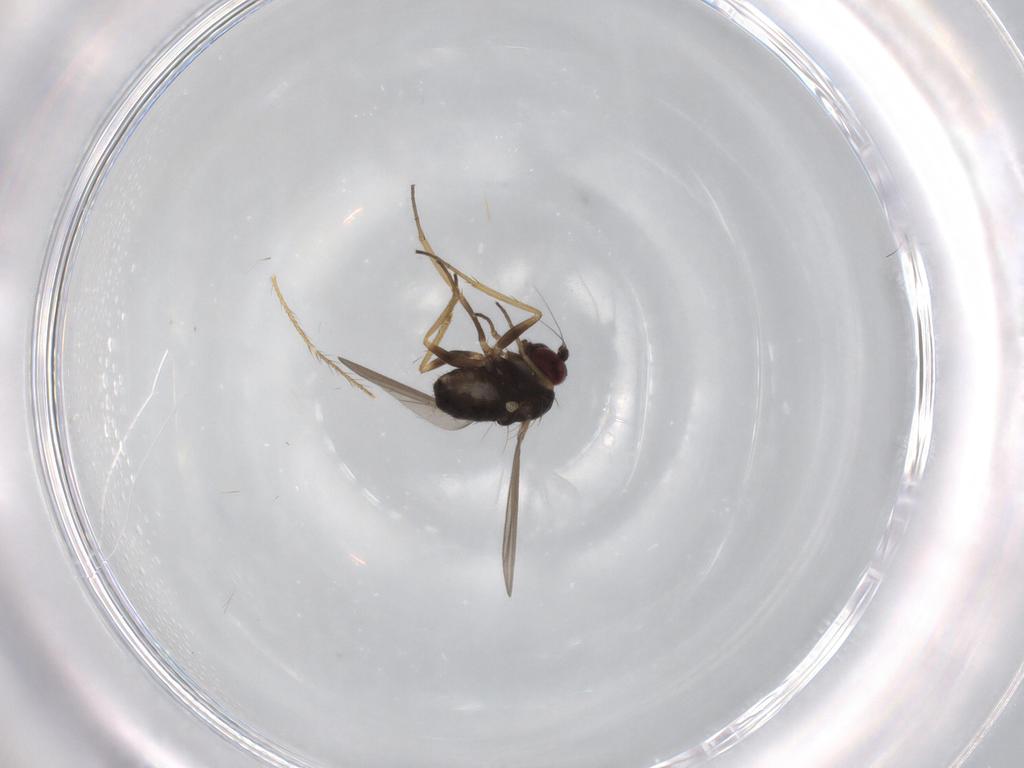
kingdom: Animalia
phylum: Arthropoda
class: Insecta
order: Diptera
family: Dolichopodidae
